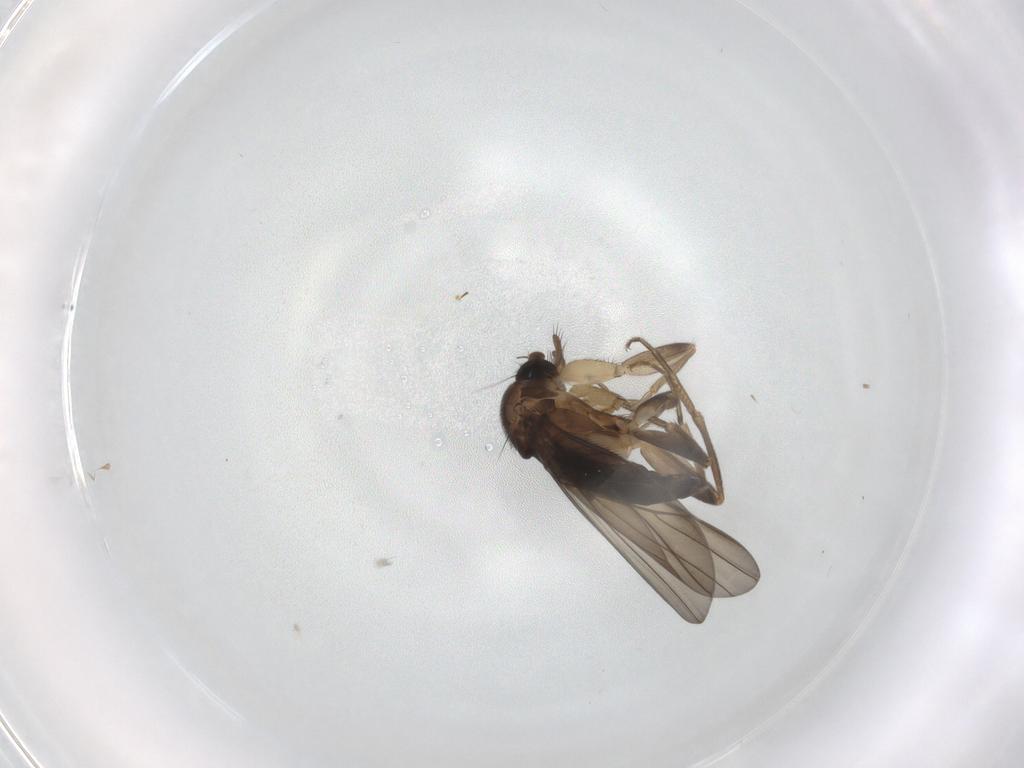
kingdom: Animalia
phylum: Arthropoda
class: Insecta
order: Diptera
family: Phoridae
